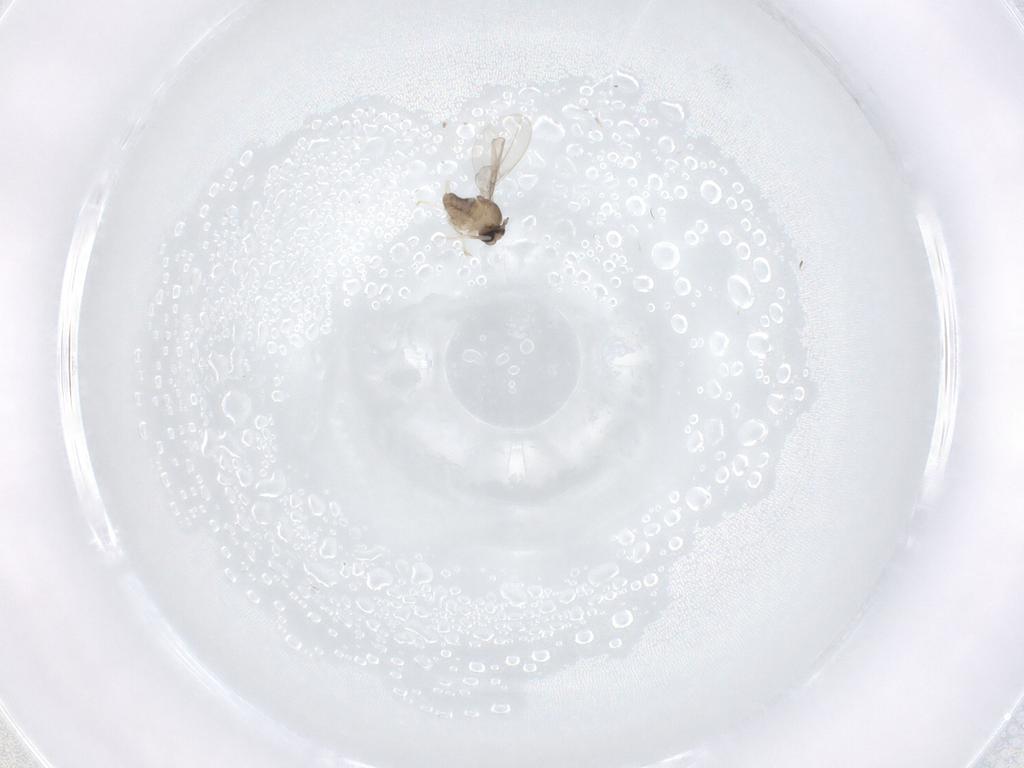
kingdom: Animalia
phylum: Arthropoda
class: Insecta
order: Diptera
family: Cecidomyiidae
